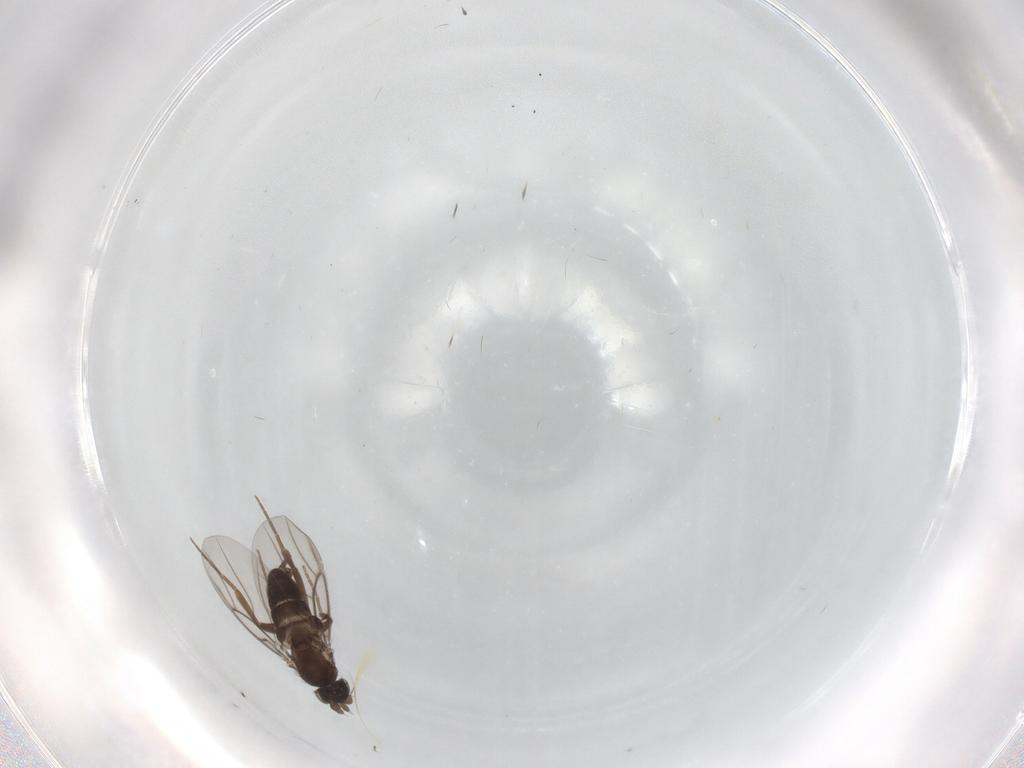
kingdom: Animalia
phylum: Arthropoda
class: Insecta
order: Diptera
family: Phoridae
